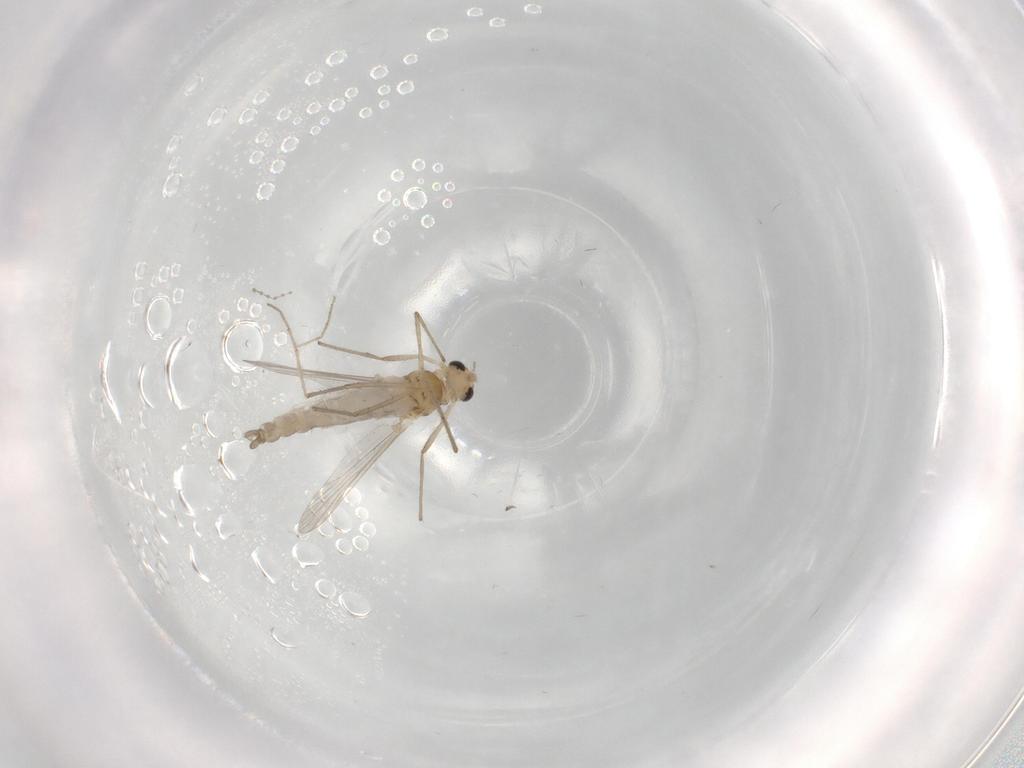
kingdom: Animalia
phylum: Arthropoda
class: Insecta
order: Diptera
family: Chironomidae
